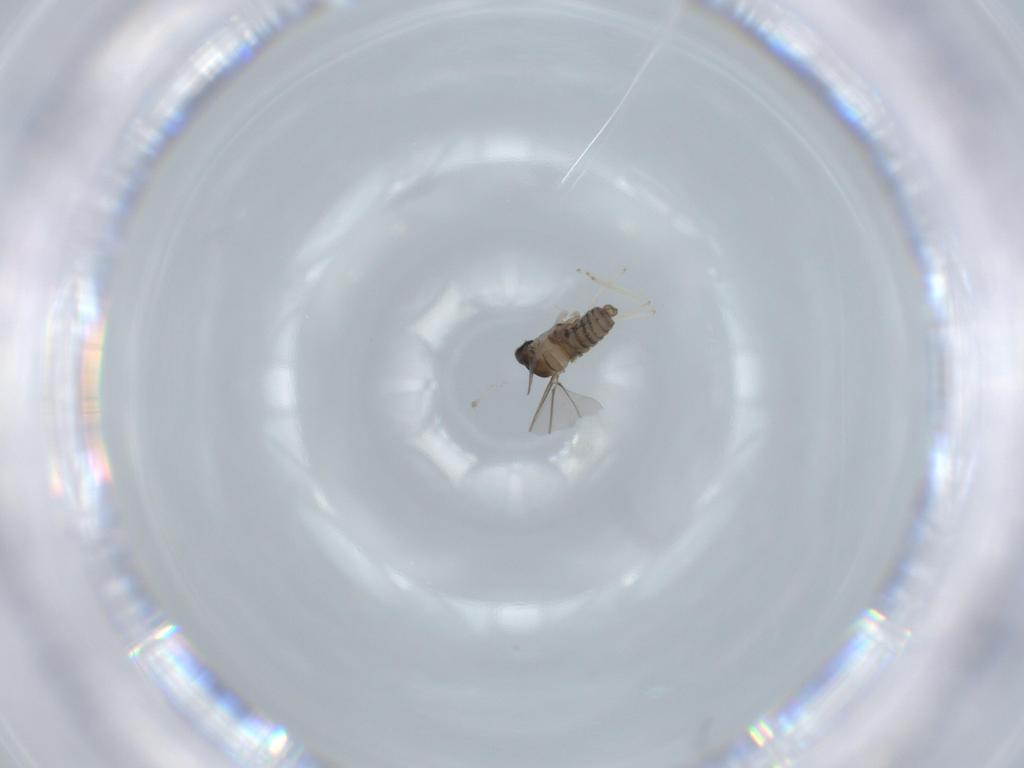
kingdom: Animalia
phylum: Arthropoda
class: Insecta
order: Diptera
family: Cecidomyiidae
